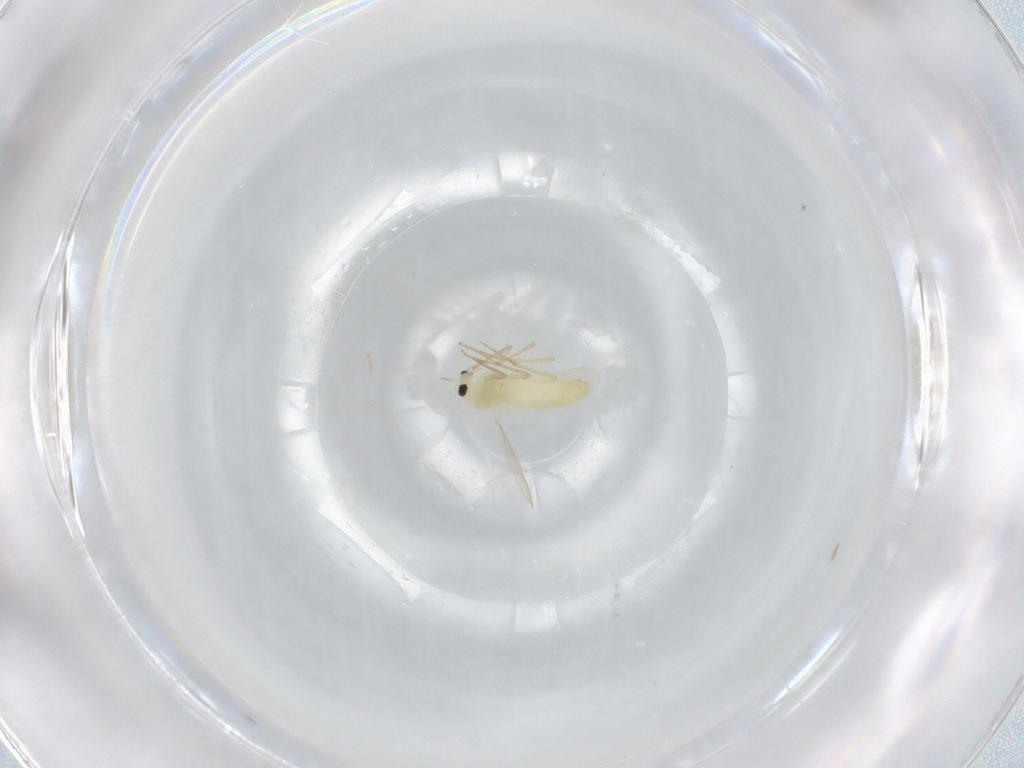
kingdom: Animalia
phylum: Arthropoda
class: Insecta
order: Diptera
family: Chironomidae
